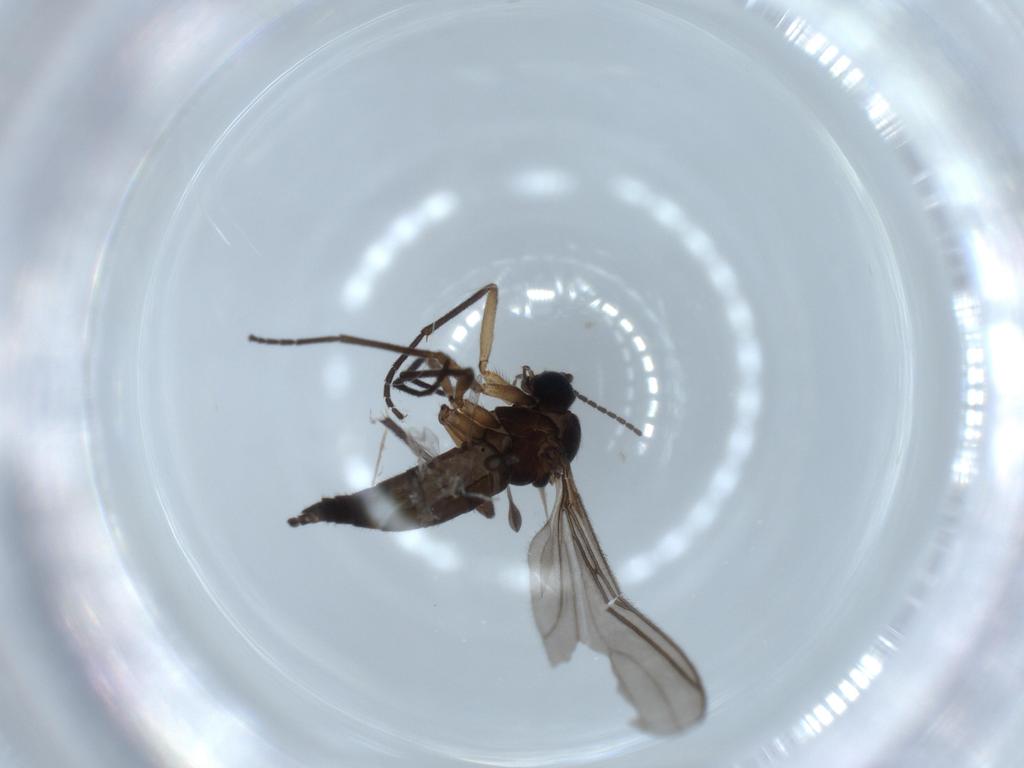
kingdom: Animalia
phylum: Arthropoda
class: Insecta
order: Diptera
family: Sciaridae
